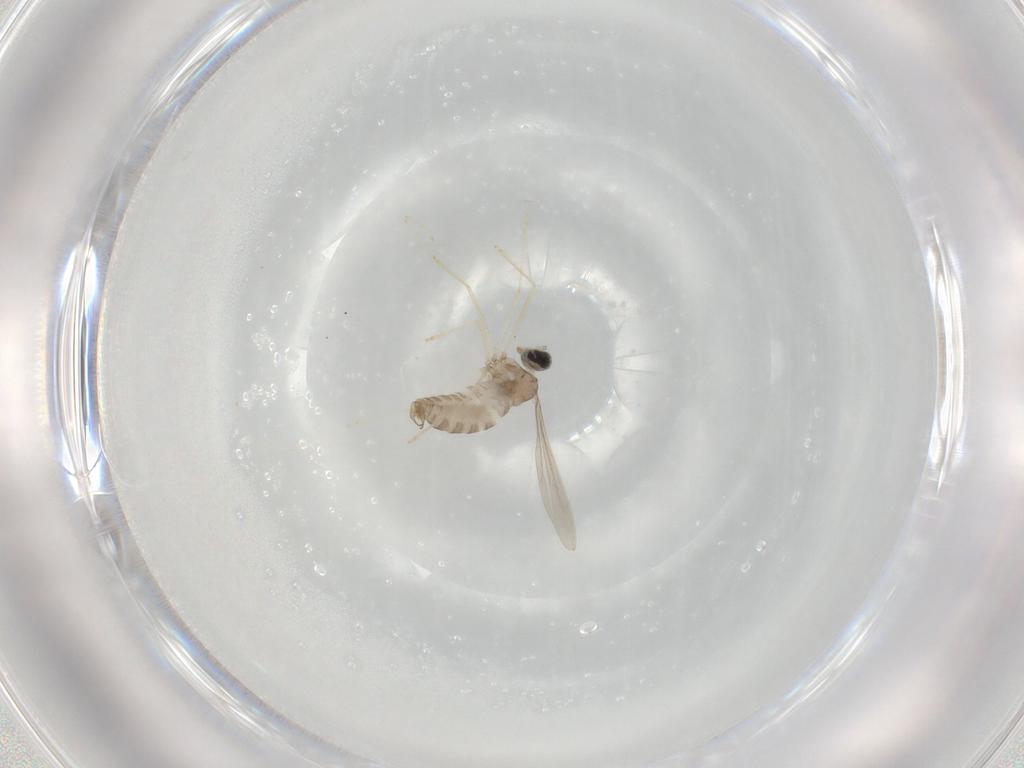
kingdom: Animalia
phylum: Arthropoda
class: Insecta
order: Diptera
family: Cecidomyiidae
